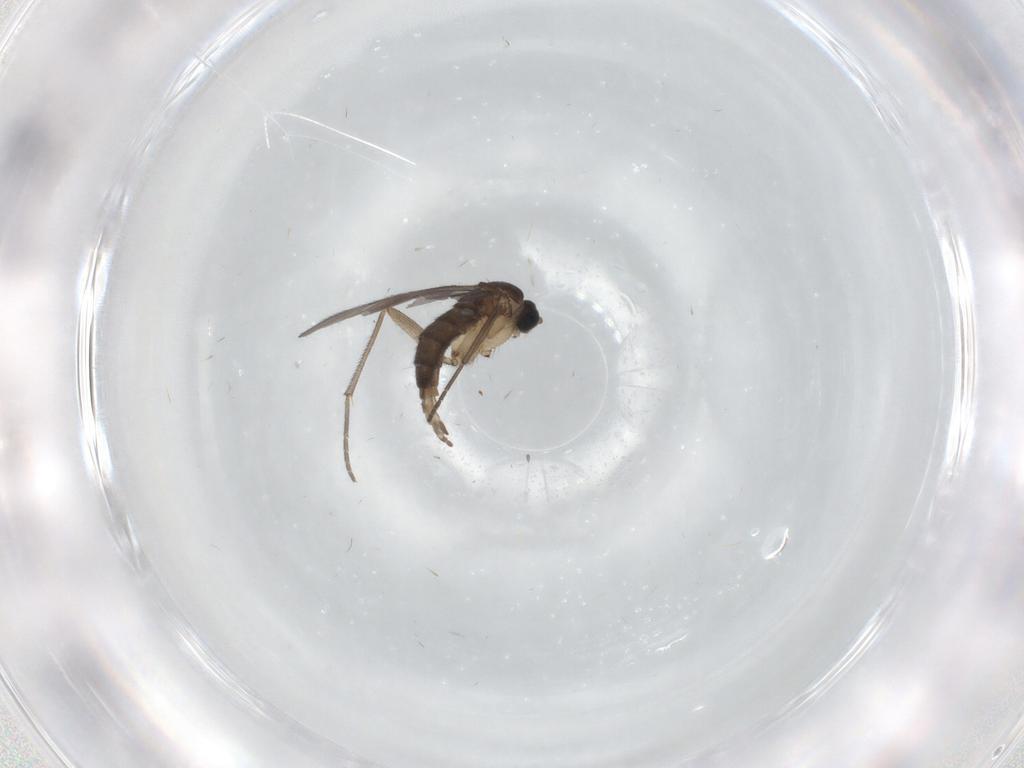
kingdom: Animalia
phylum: Arthropoda
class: Insecta
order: Diptera
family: Sciaridae
